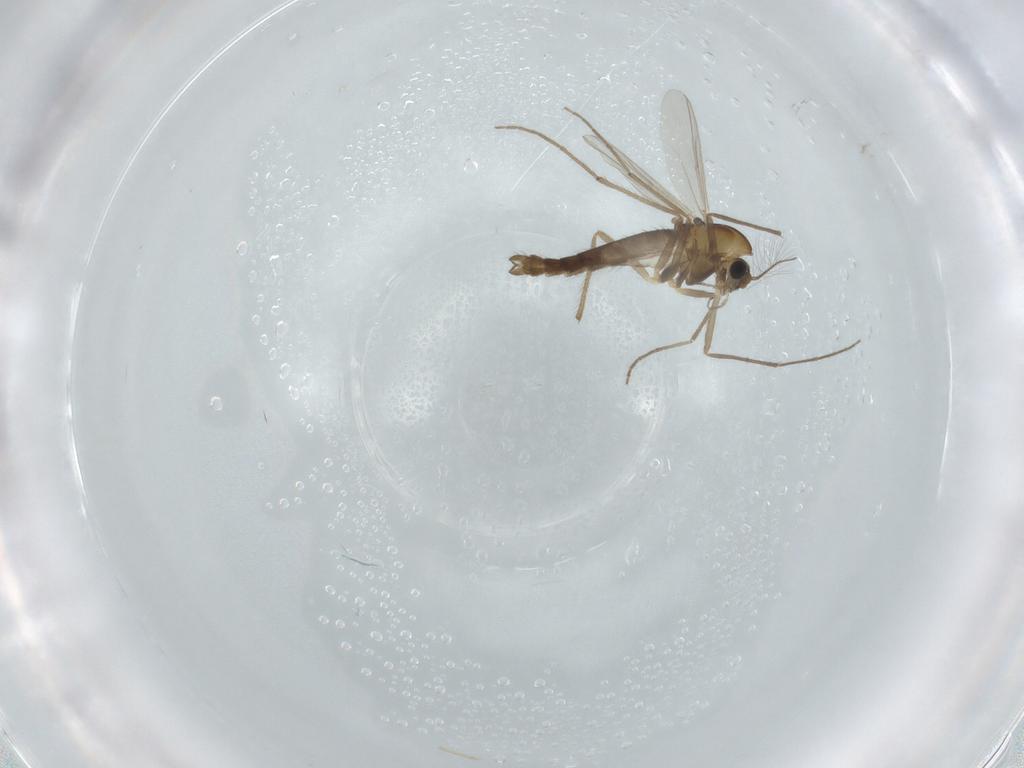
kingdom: Animalia
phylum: Arthropoda
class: Insecta
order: Diptera
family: Chironomidae
